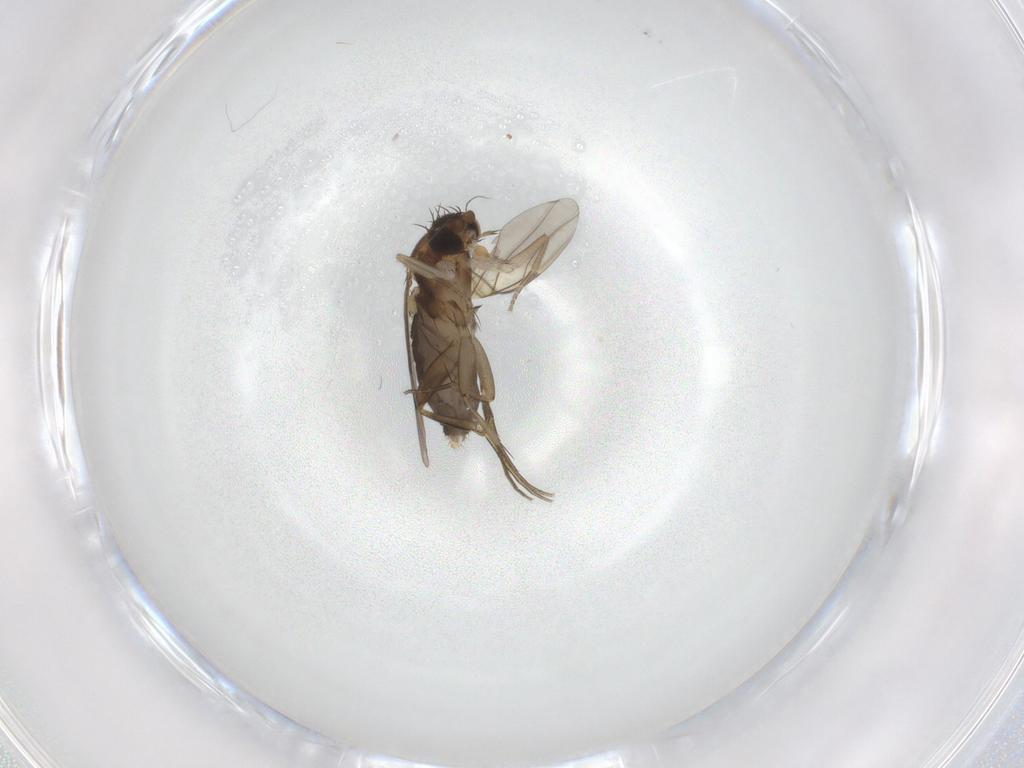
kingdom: Animalia
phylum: Arthropoda
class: Insecta
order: Diptera
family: Phoridae
